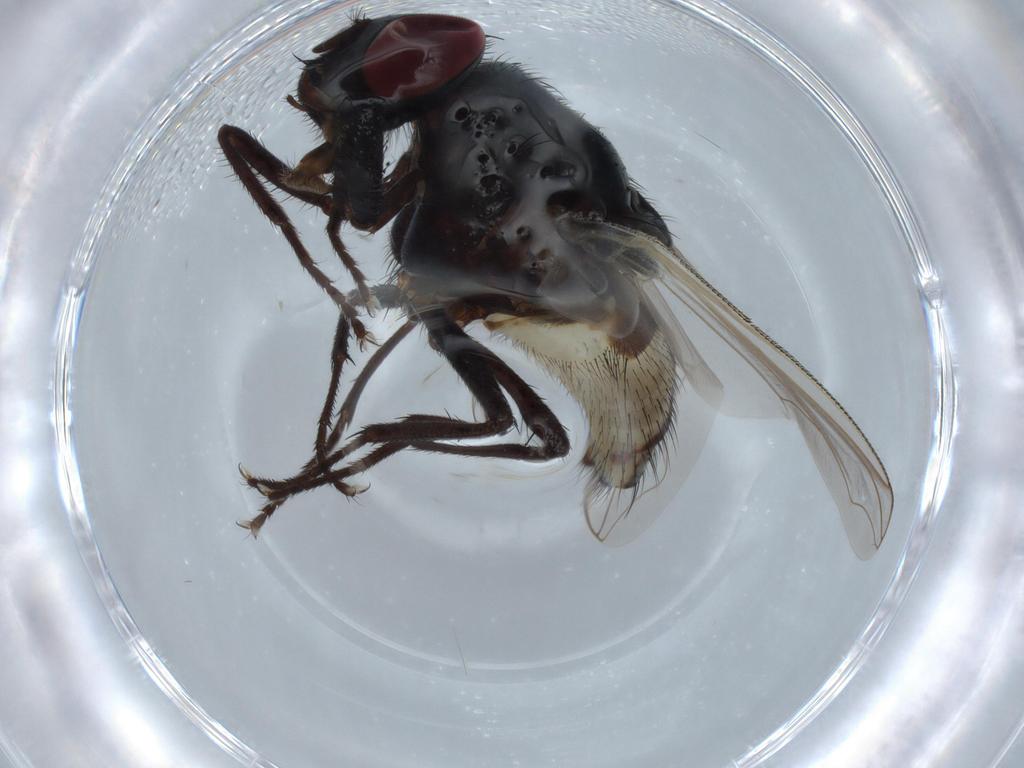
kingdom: Animalia
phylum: Arthropoda
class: Insecta
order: Diptera
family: Muscidae
